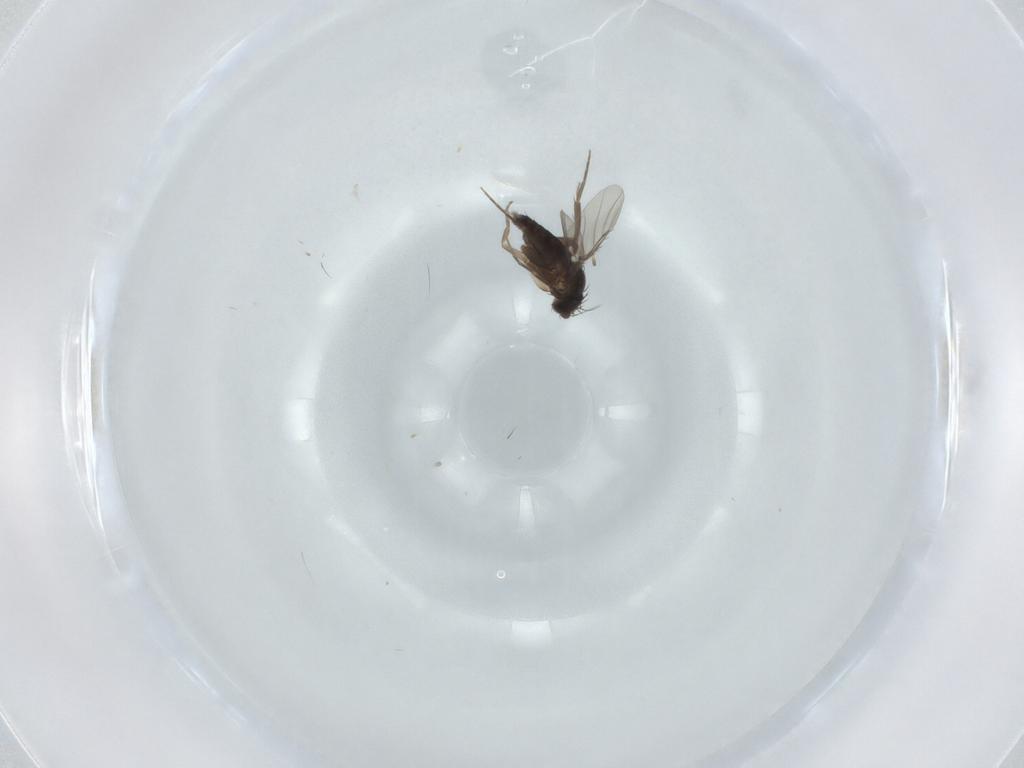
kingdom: Animalia
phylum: Arthropoda
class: Insecta
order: Diptera
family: Phoridae
